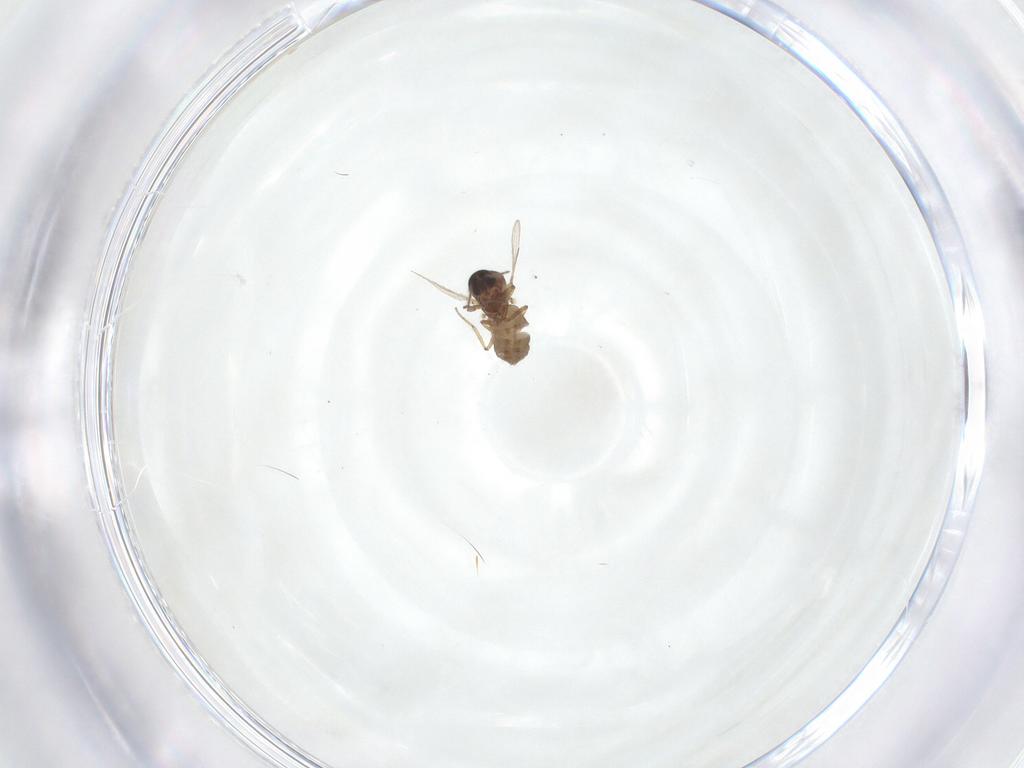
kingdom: Animalia
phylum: Arthropoda
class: Insecta
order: Diptera
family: Ceratopogonidae
